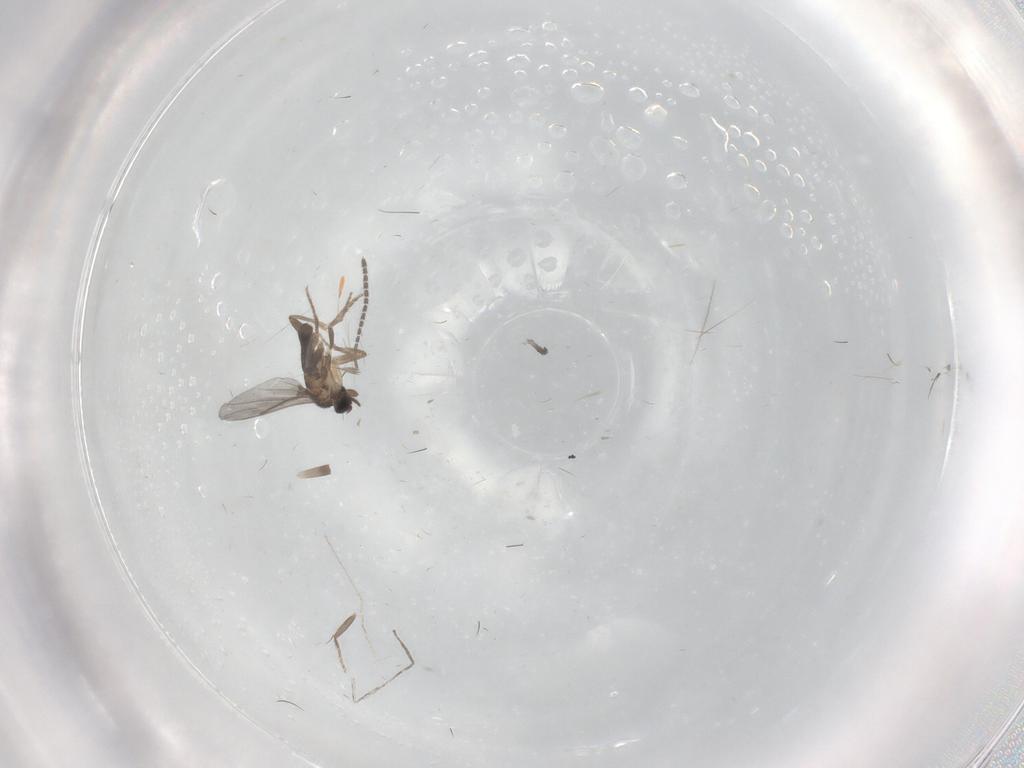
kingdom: Animalia
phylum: Arthropoda
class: Insecta
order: Diptera
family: Sciaridae
